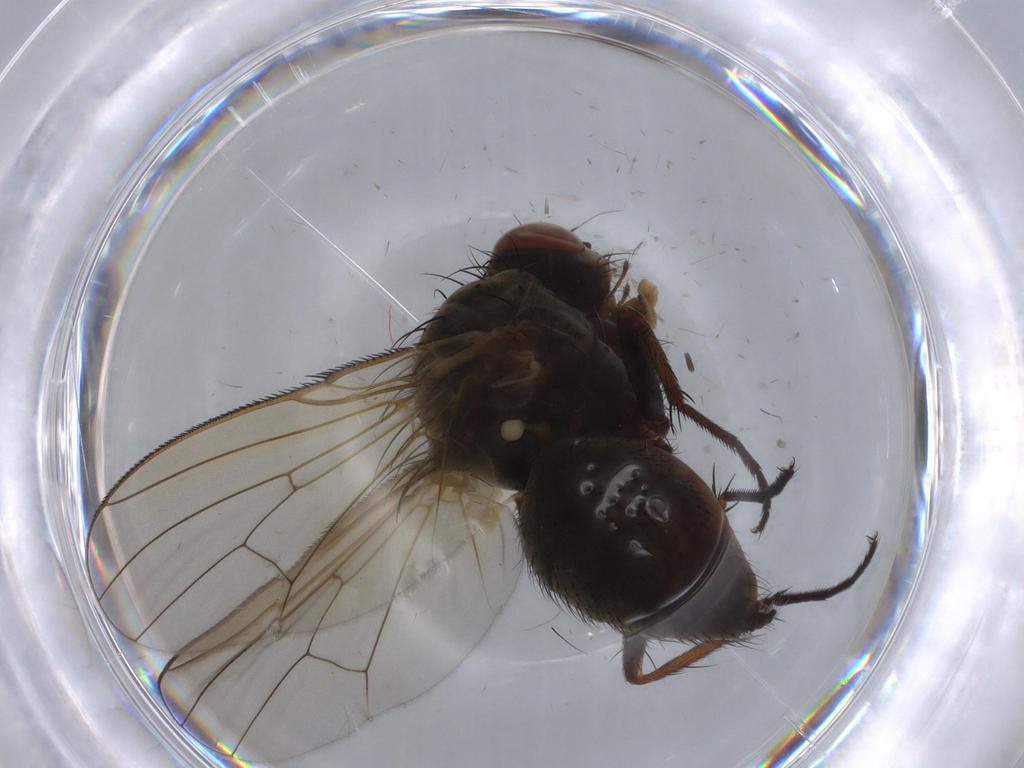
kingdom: Animalia
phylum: Arthropoda
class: Insecta
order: Diptera
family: Anthomyiidae
